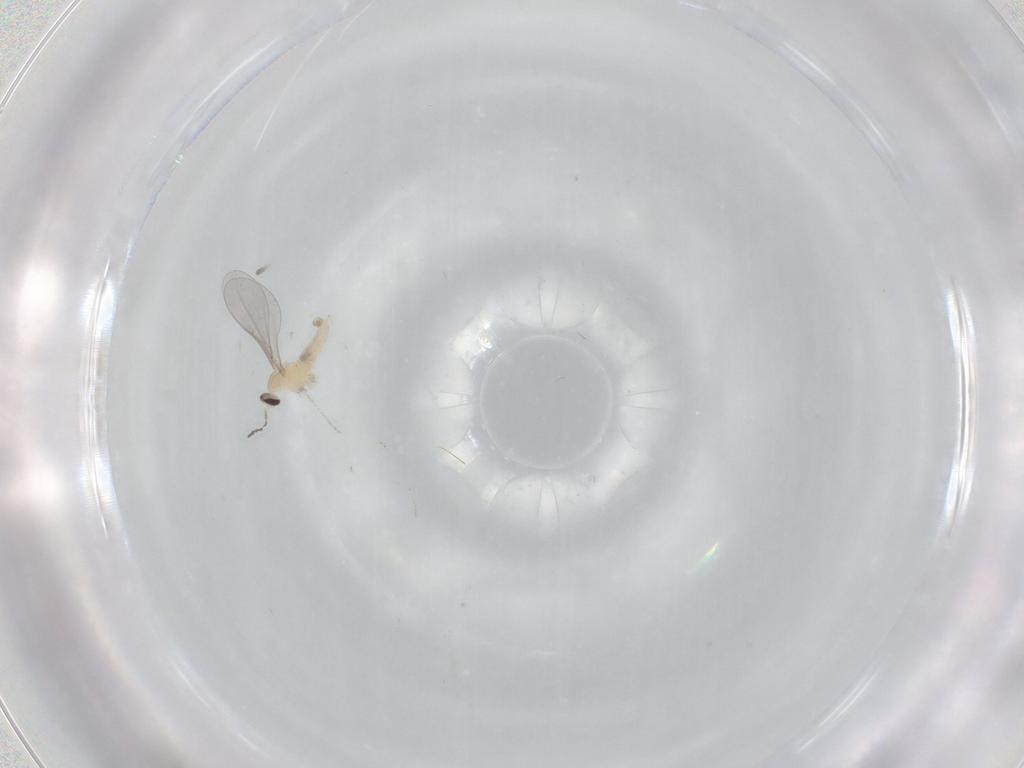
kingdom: Animalia
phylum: Arthropoda
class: Insecta
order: Diptera
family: Cecidomyiidae
